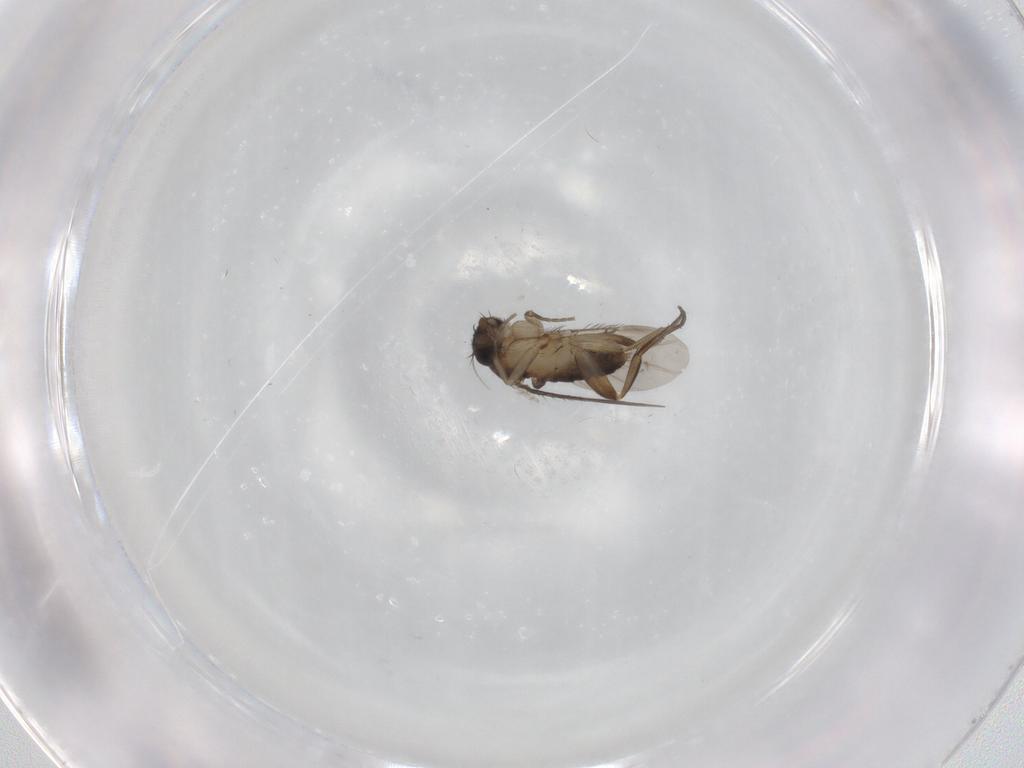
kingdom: Animalia
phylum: Arthropoda
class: Insecta
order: Diptera
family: Phoridae
